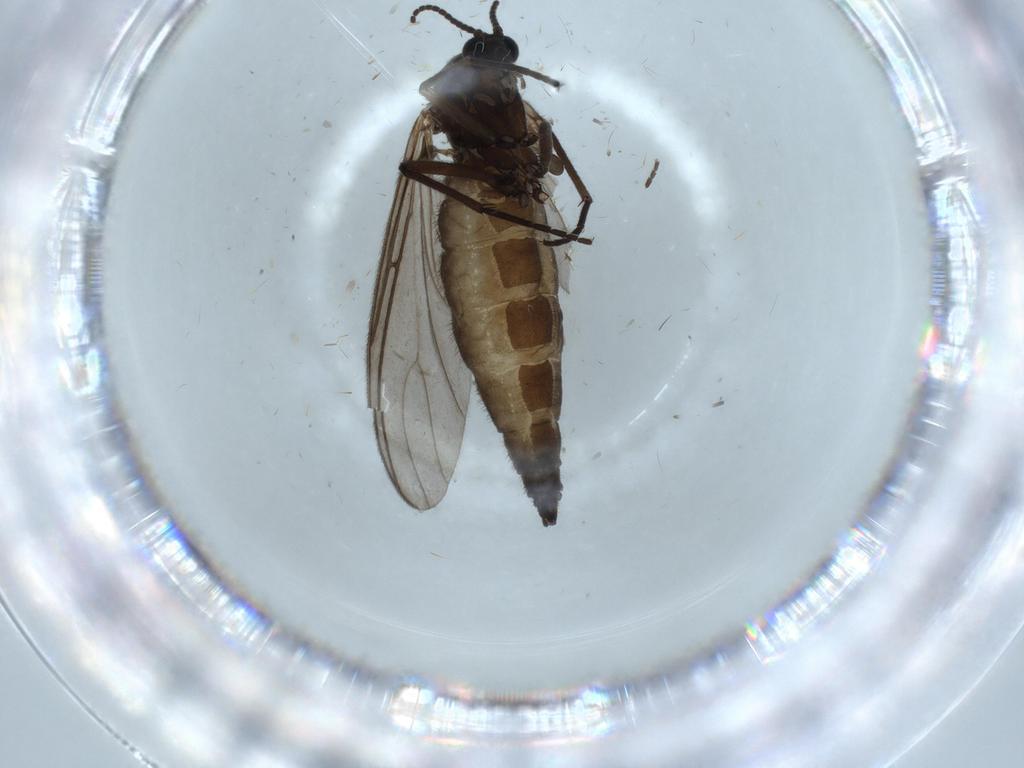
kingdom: Animalia
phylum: Arthropoda
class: Insecta
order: Diptera
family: Sciaridae
